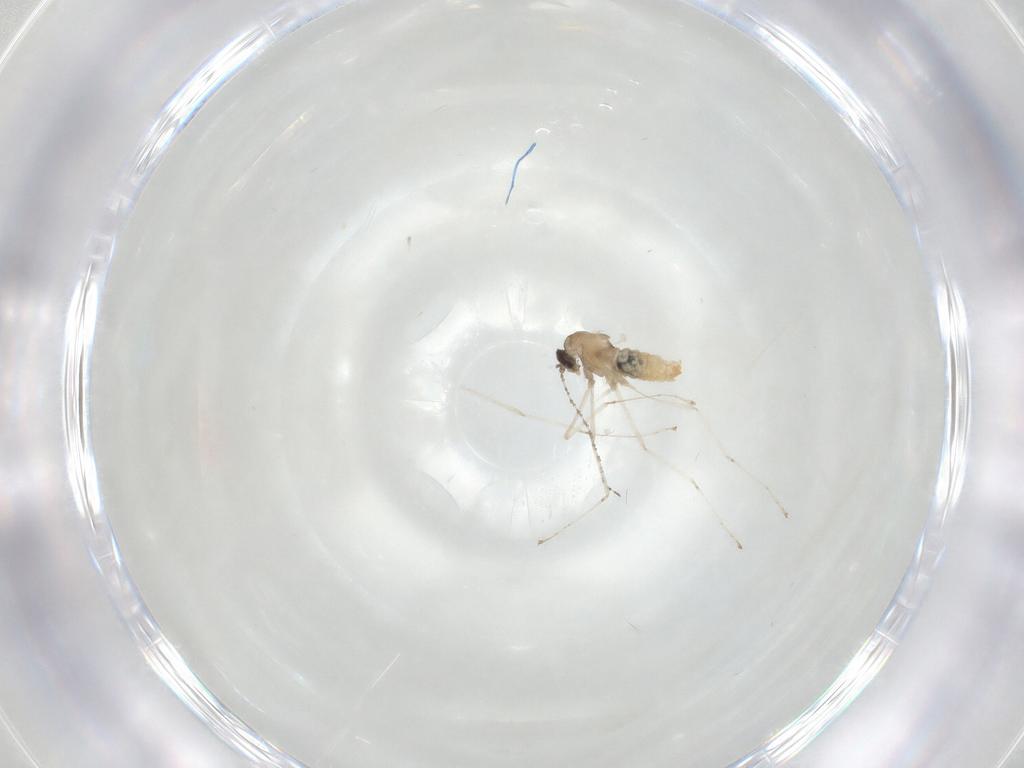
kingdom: Animalia
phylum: Arthropoda
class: Insecta
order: Diptera
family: Cecidomyiidae
